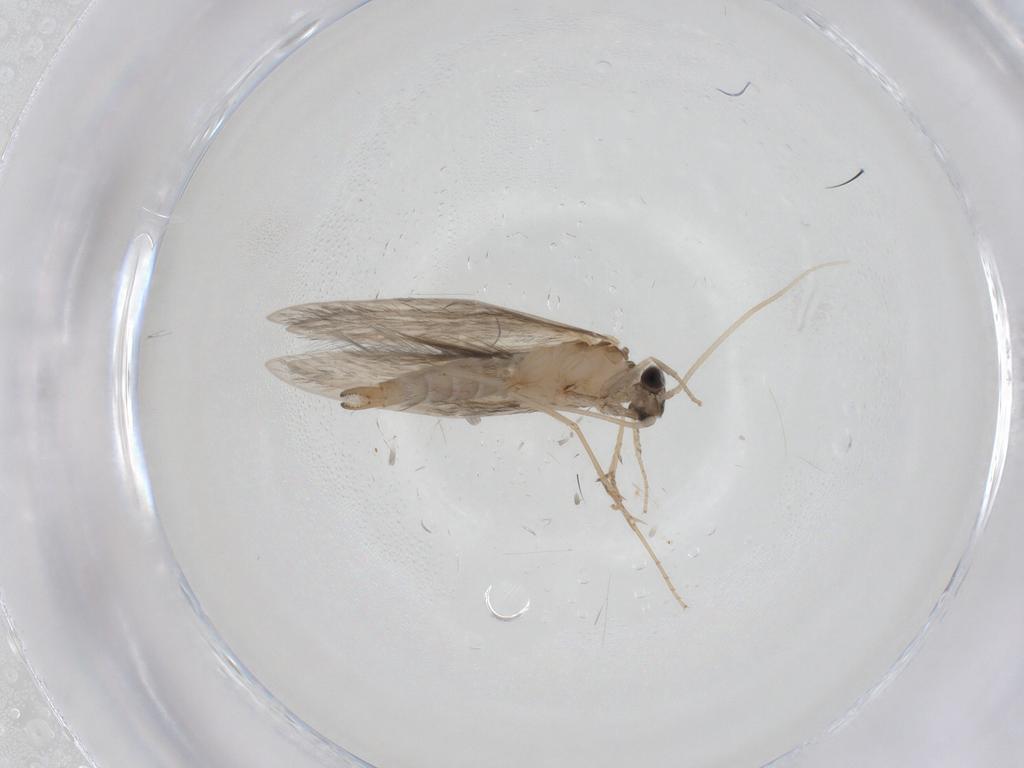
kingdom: Animalia
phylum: Arthropoda
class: Insecta
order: Trichoptera
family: Hydroptilidae
